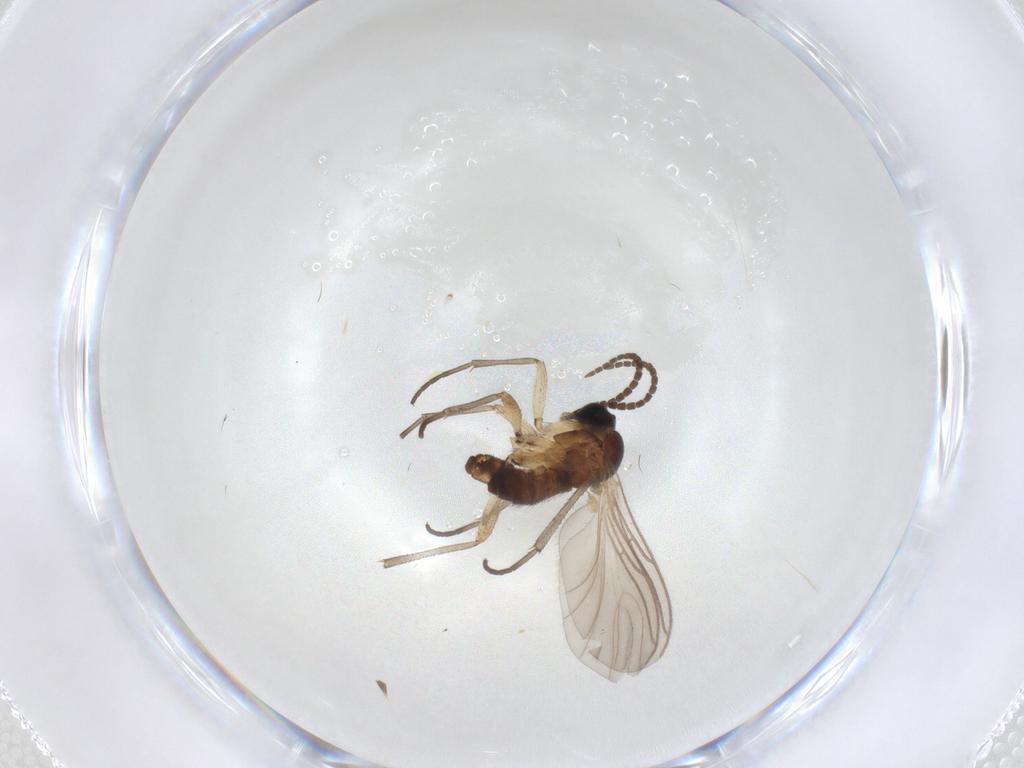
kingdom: Animalia
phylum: Arthropoda
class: Insecta
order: Diptera
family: Sciaridae
